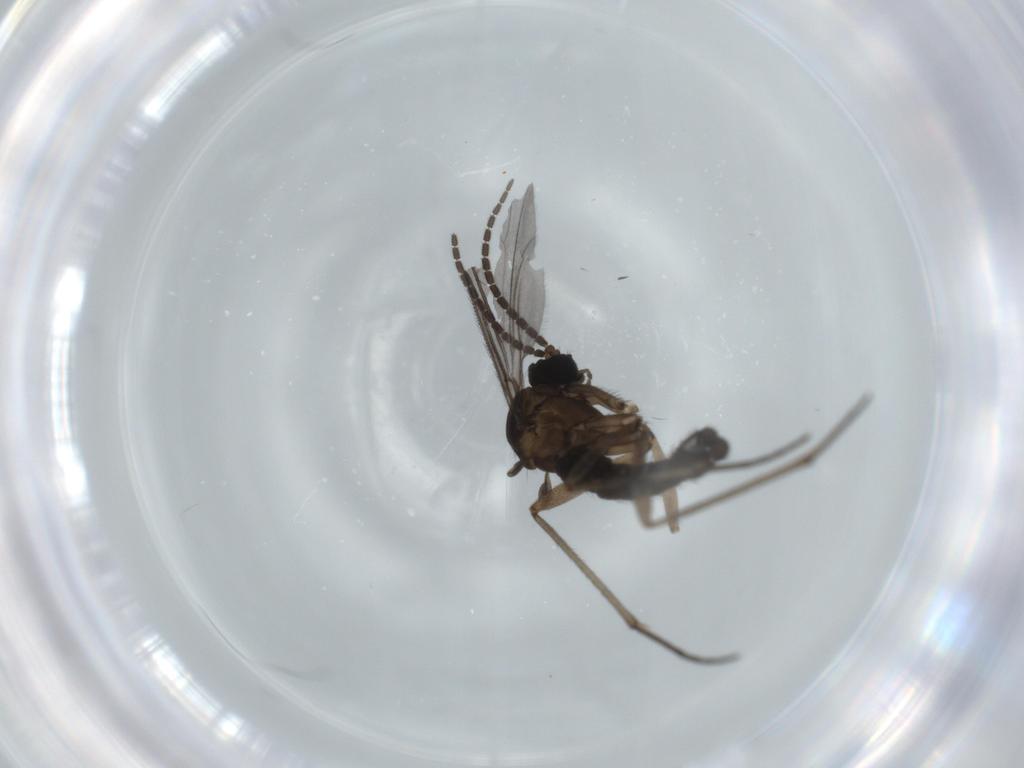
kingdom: Animalia
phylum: Arthropoda
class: Insecta
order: Diptera
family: Sciaridae
